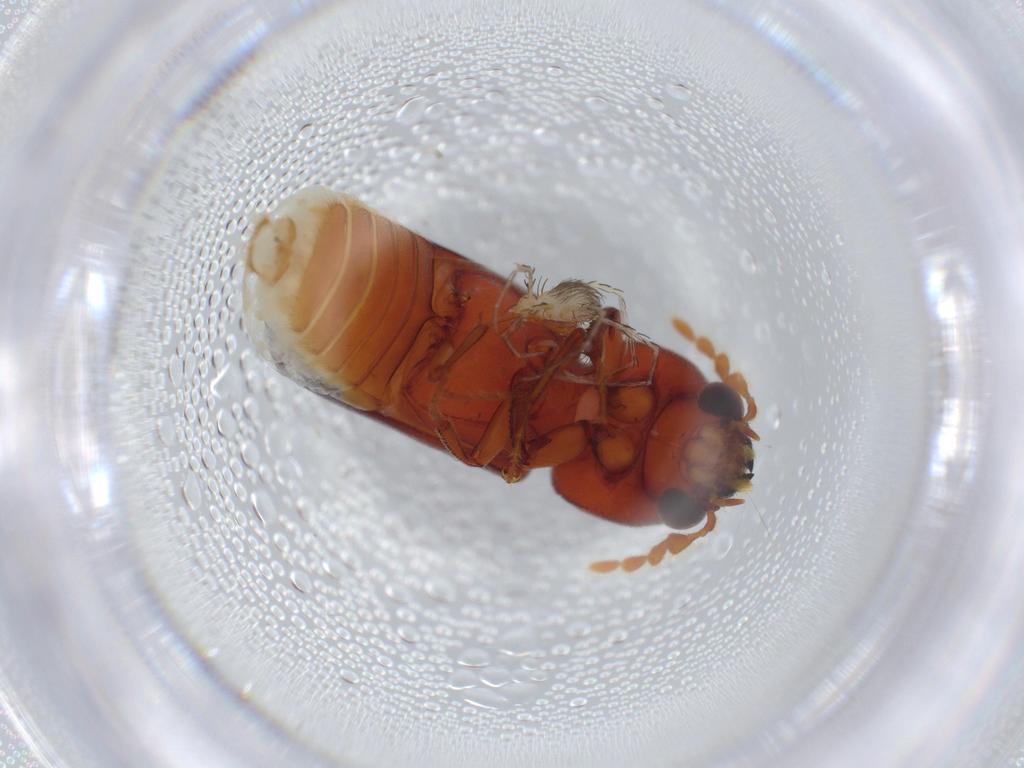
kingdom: Animalia
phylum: Arthropoda
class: Insecta
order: Coleoptera
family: Bostrichidae
